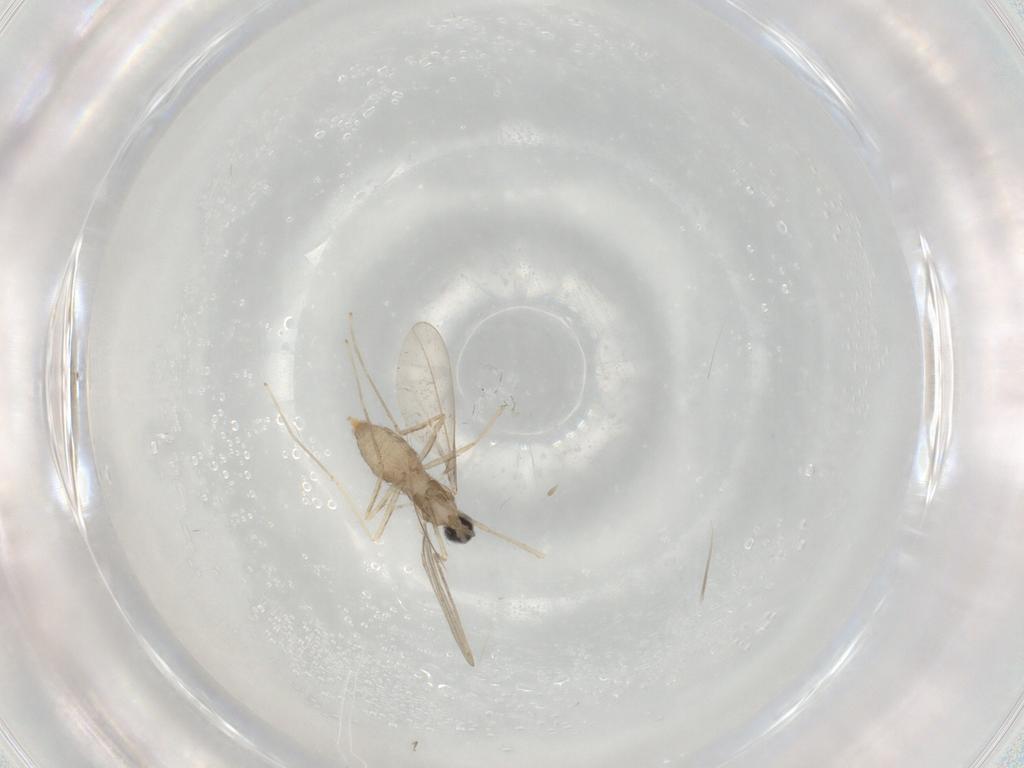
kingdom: Animalia
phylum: Arthropoda
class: Insecta
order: Diptera
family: Cecidomyiidae
